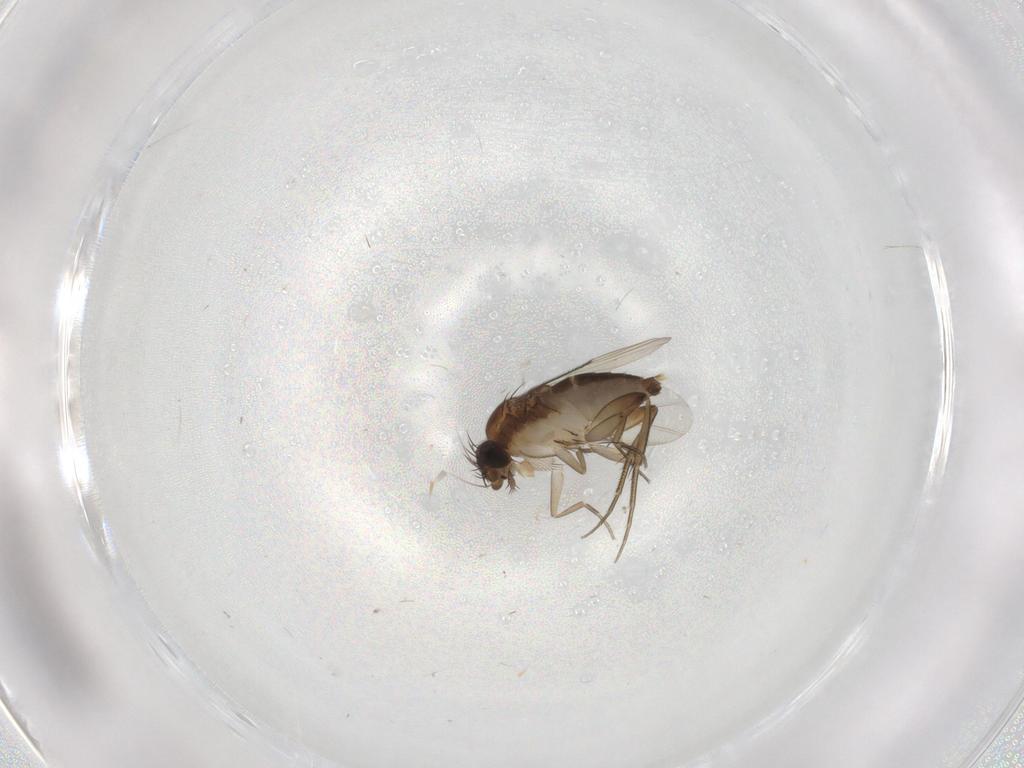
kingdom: Animalia
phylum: Arthropoda
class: Insecta
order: Diptera
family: Phoridae
